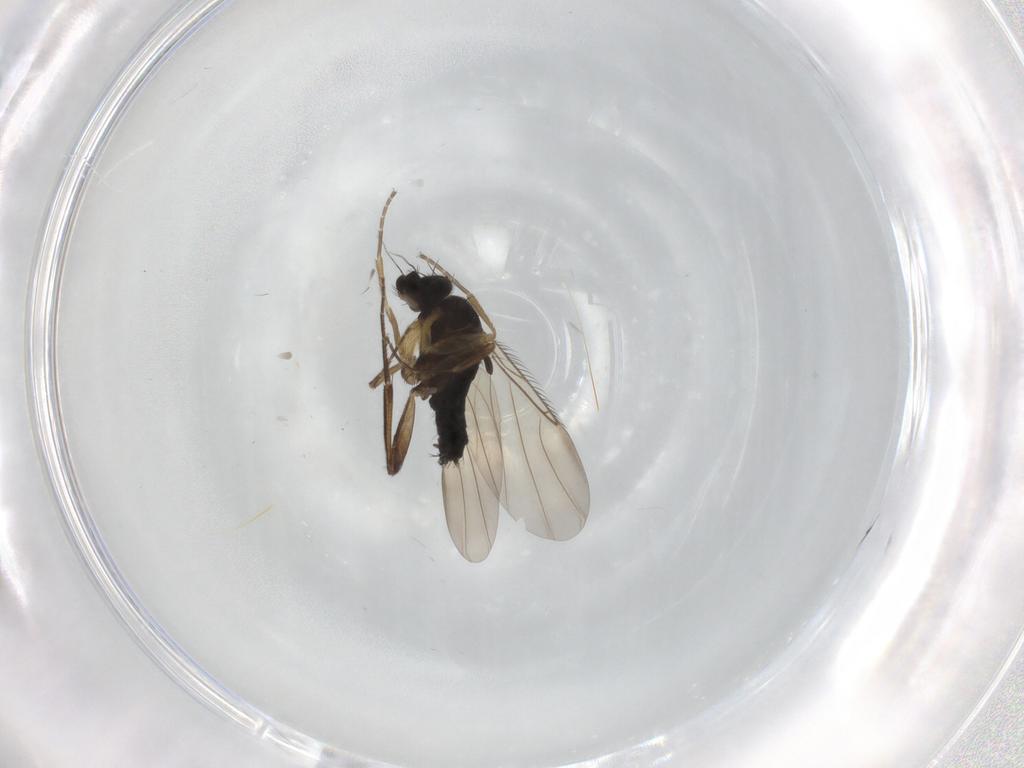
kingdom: Animalia
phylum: Arthropoda
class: Insecta
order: Diptera
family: Phoridae
